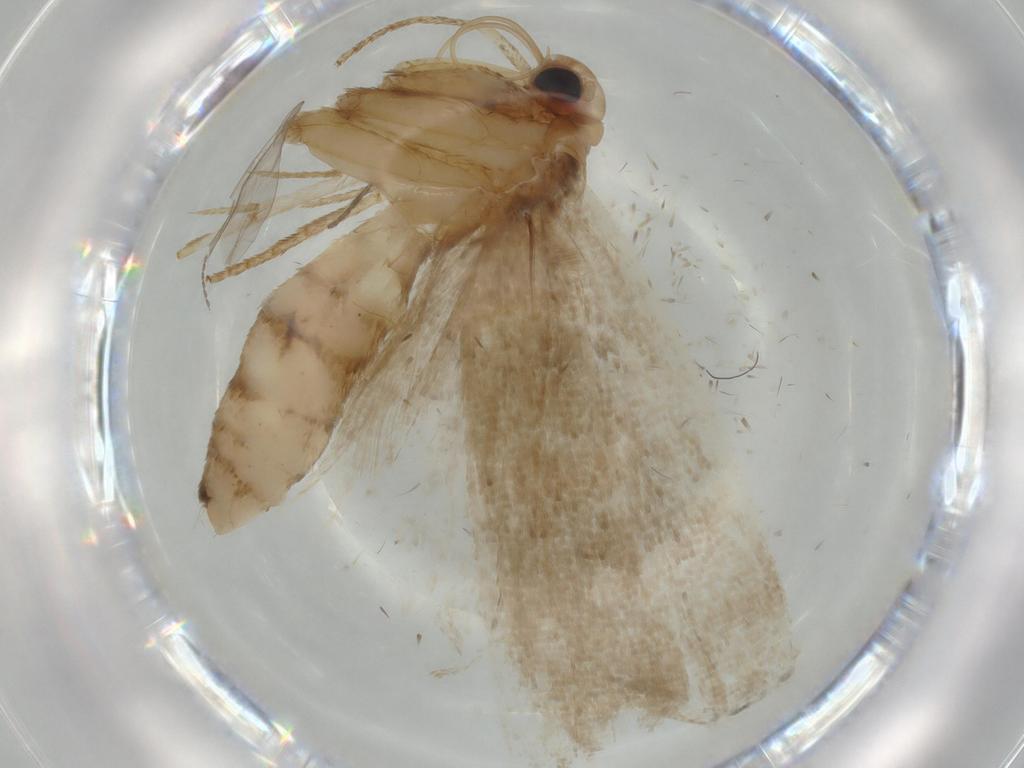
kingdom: Animalia
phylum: Arthropoda
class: Insecta
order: Lepidoptera
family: Erebidae
